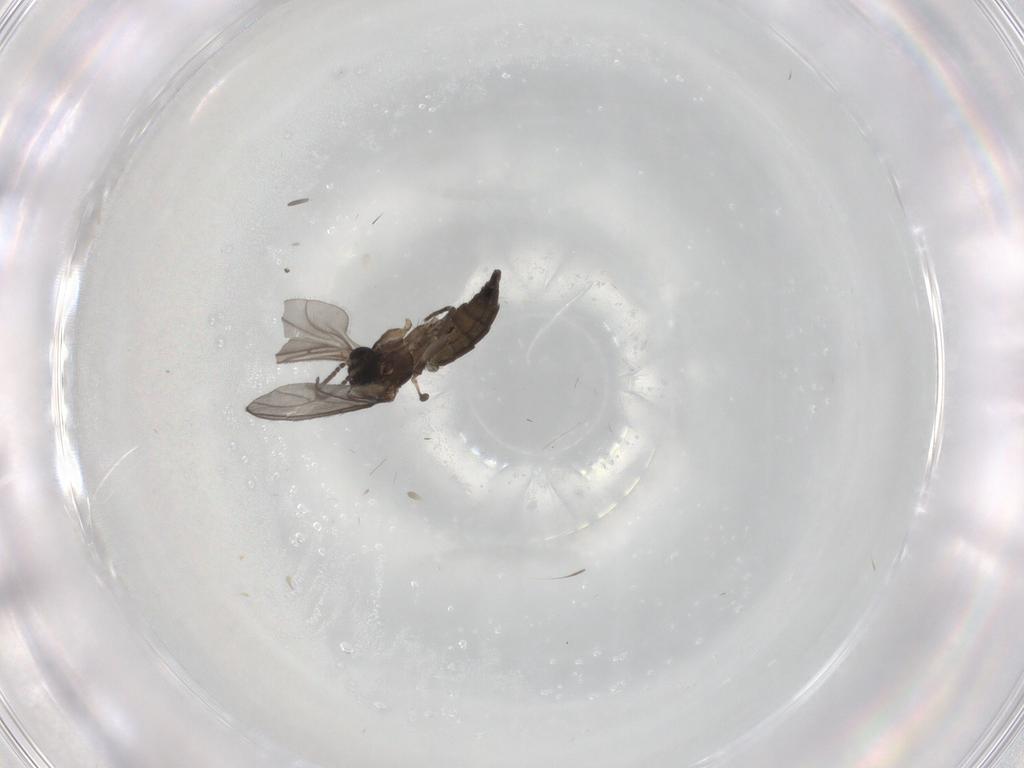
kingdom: Animalia
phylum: Arthropoda
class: Insecta
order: Diptera
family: Sciaridae
